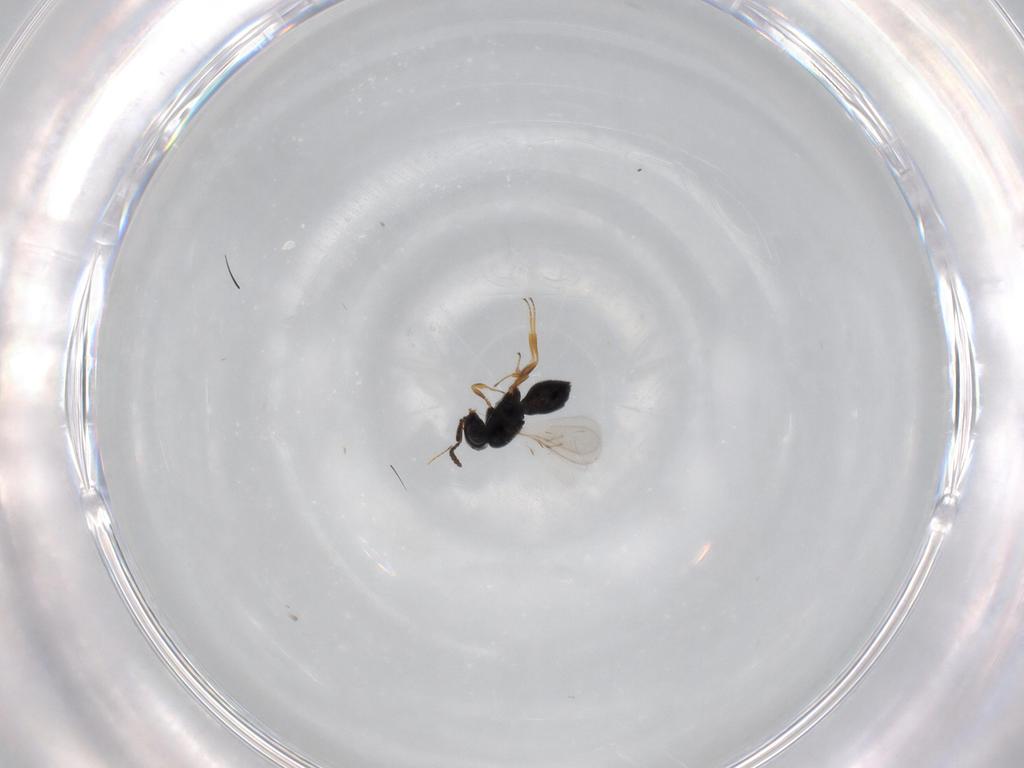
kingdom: Animalia
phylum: Arthropoda
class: Insecta
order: Hymenoptera
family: Scelionidae
